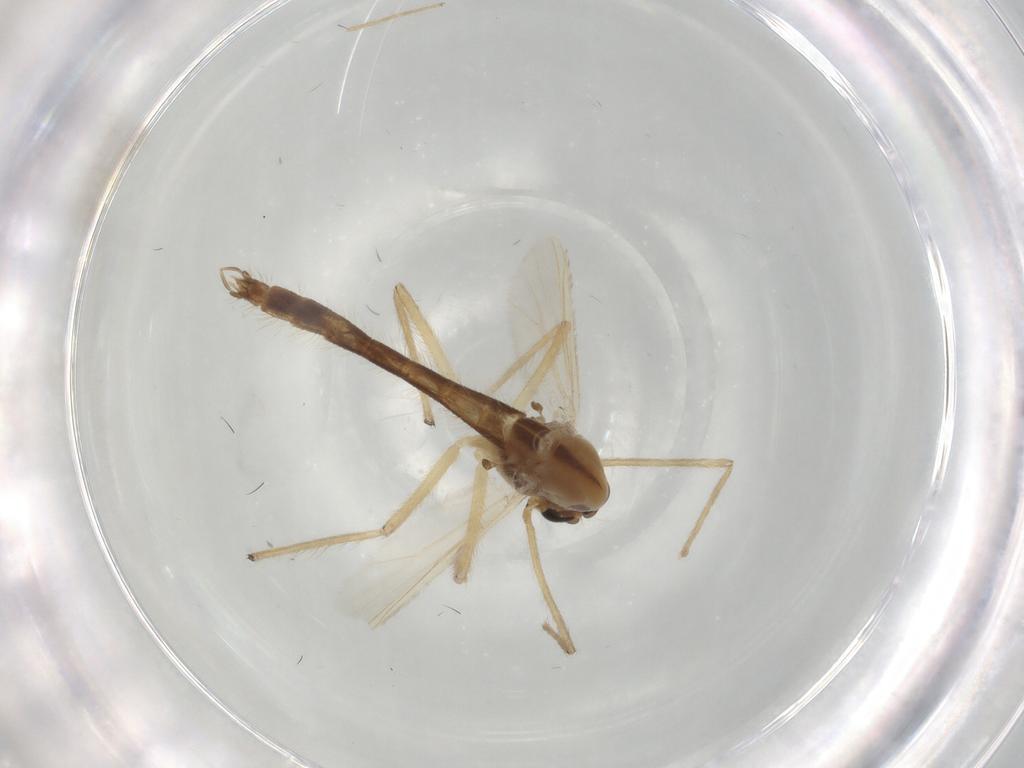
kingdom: Animalia
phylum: Arthropoda
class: Insecta
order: Diptera
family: Chironomidae
